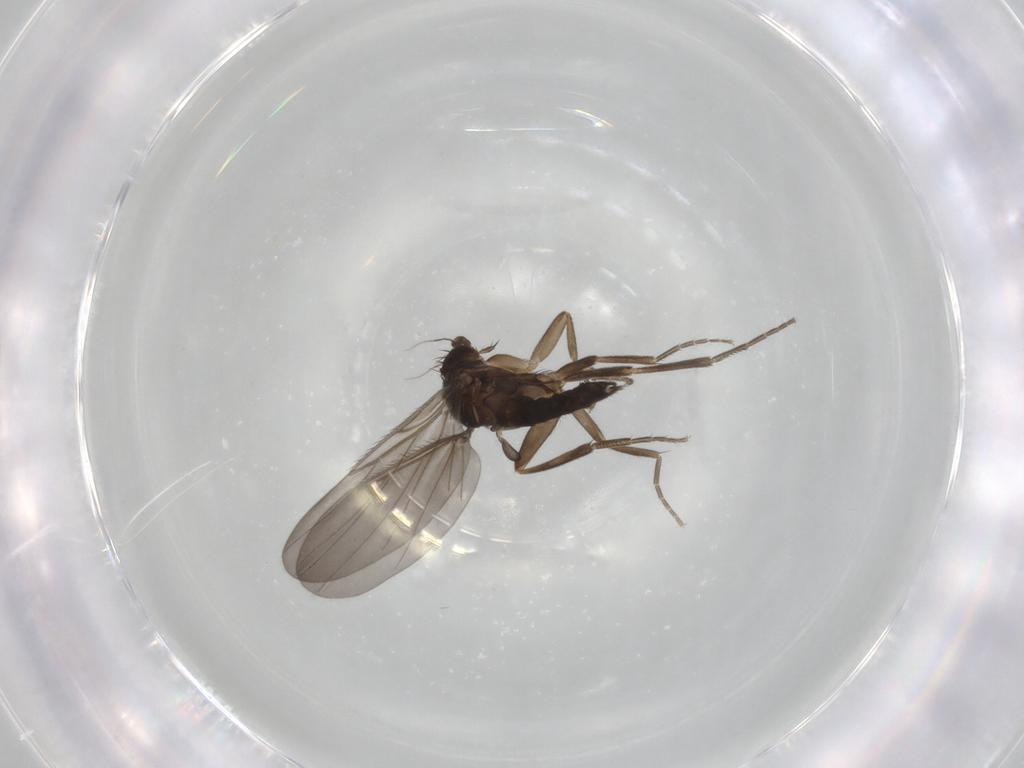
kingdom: Animalia
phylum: Arthropoda
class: Insecta
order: Diptera
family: Phoridae
